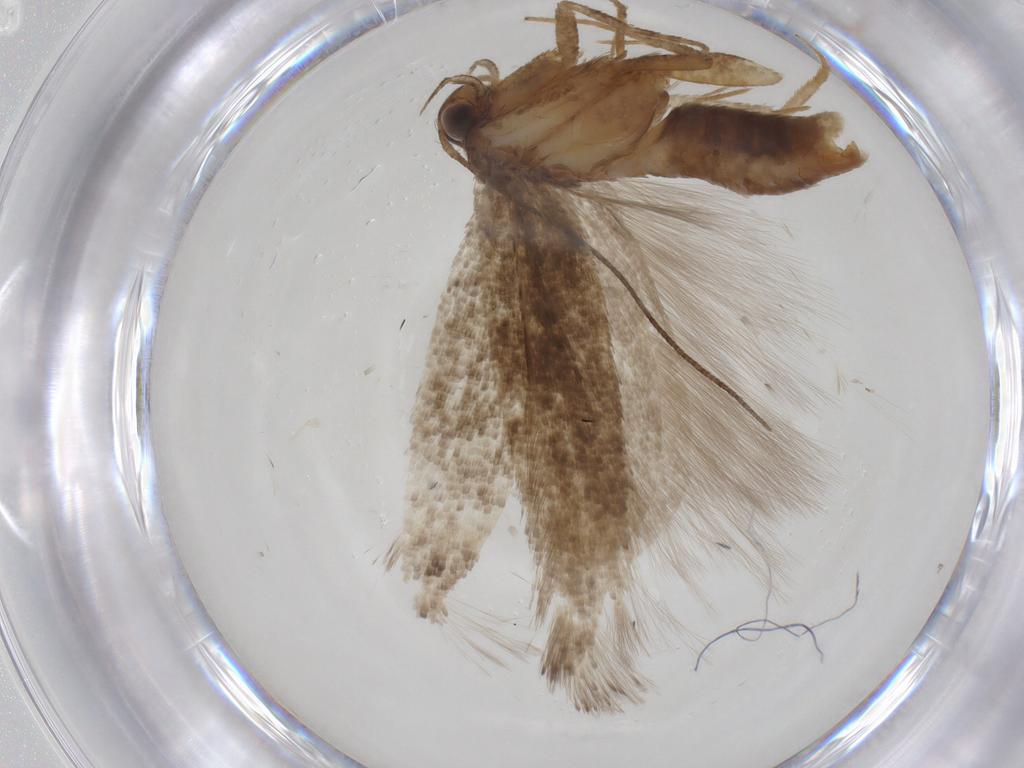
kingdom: Animalia
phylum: Arthropoda
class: Insecta
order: Lepidoptera
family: Gelechiidae
